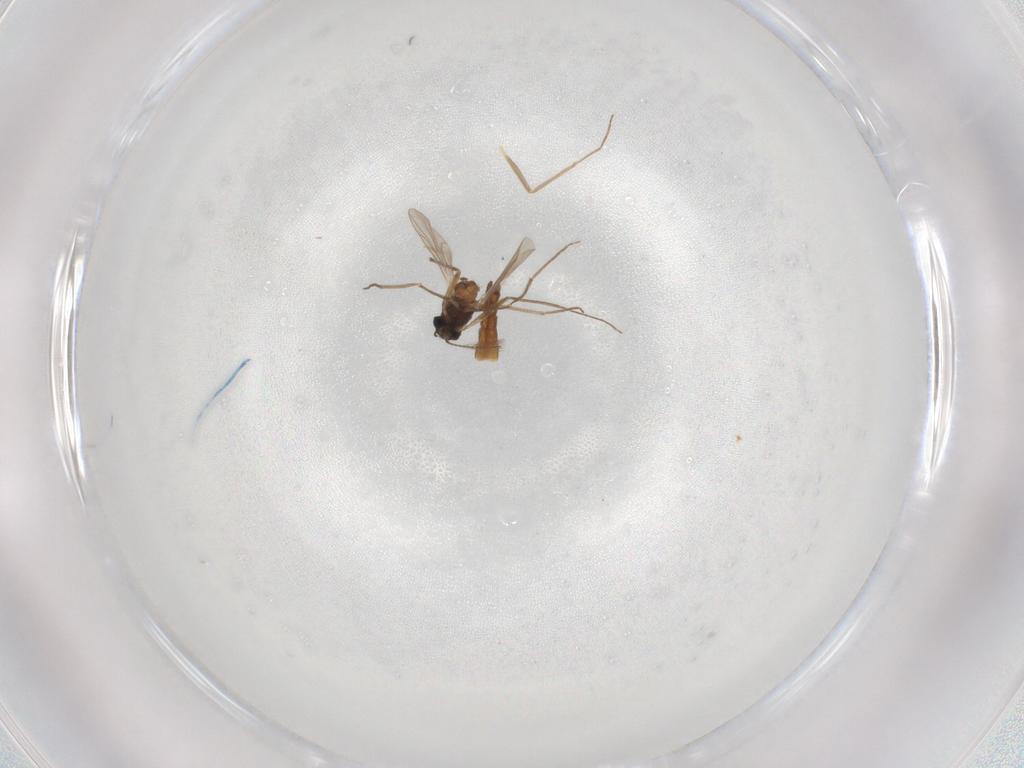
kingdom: Animalia
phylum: Arthropoda
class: Insecta
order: Diptera
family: Chironomidae
